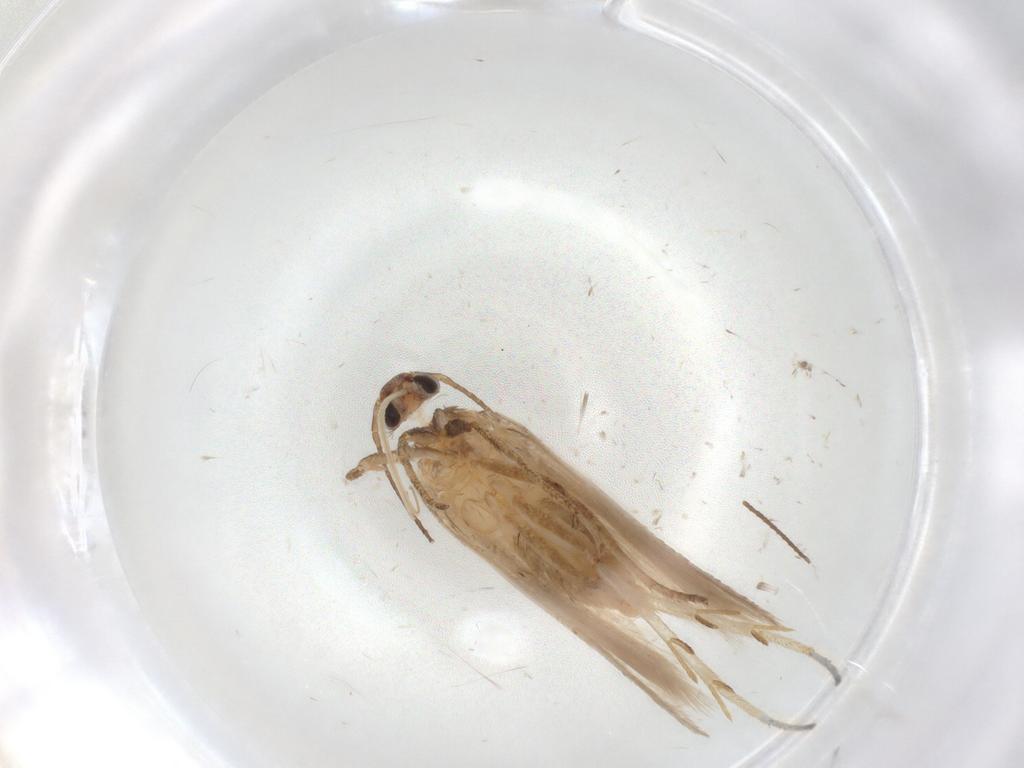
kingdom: Animalia
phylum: Arthropoda
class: Insecta
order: Lepidoptera
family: Gelechiidae
